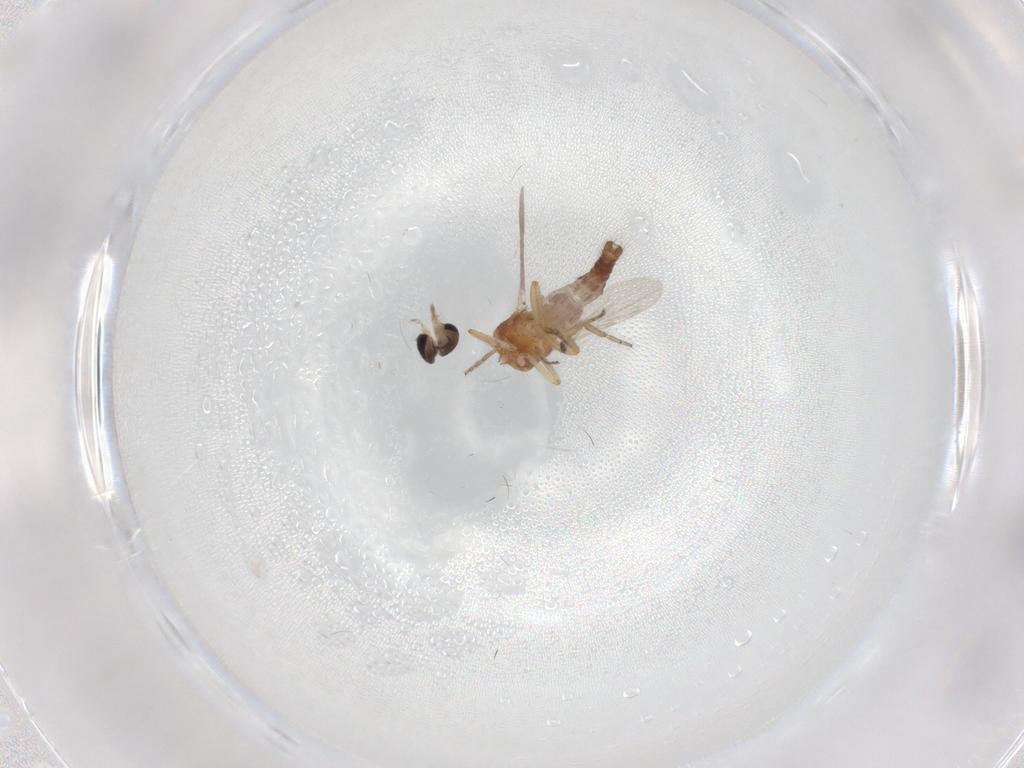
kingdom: Animalia
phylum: Arthropoda
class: Insecta
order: Diptera
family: Ceratopogonidae
